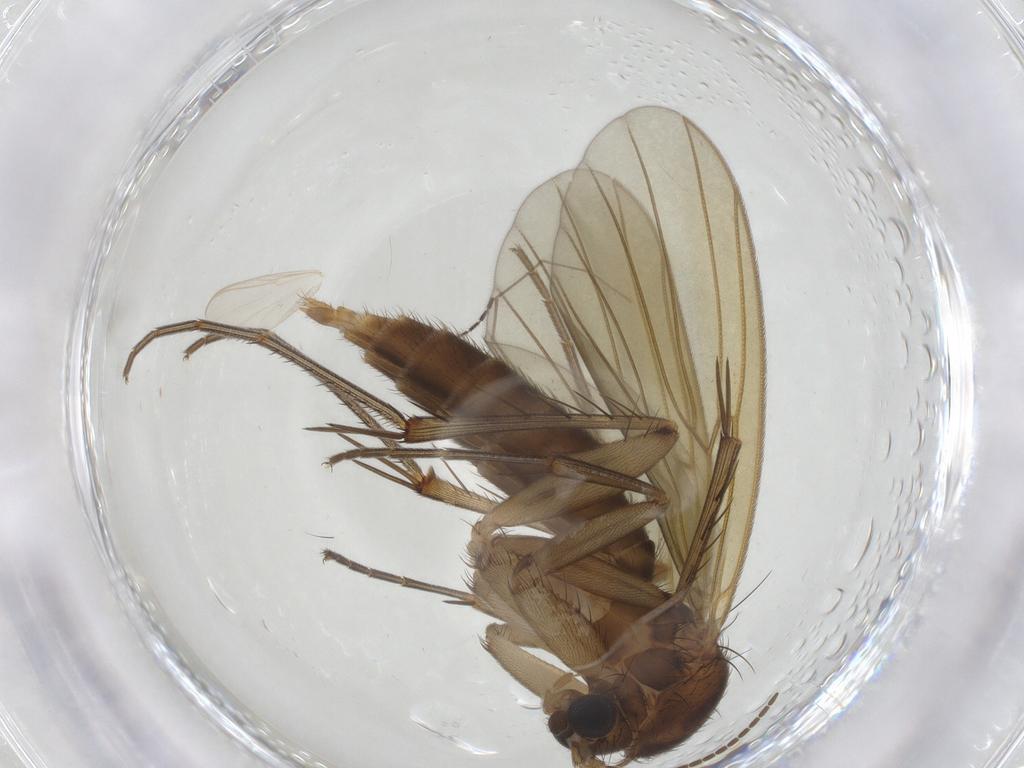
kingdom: Animalia
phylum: Arthropoda
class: Insecta
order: Diptera
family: Mycetophilidae
